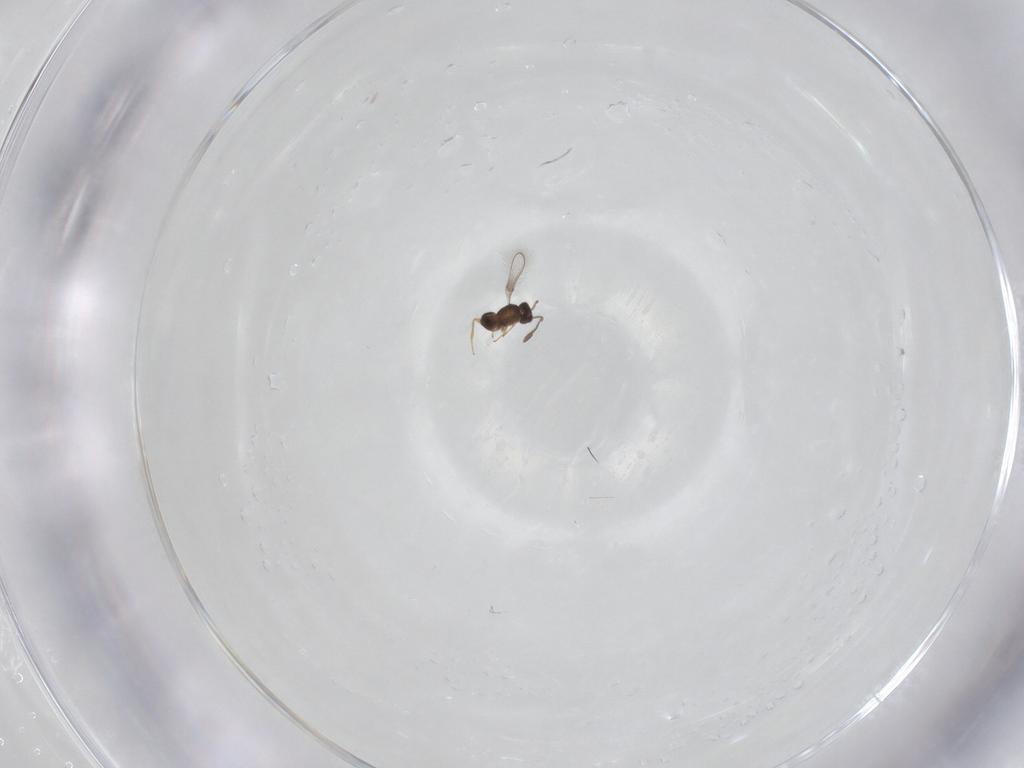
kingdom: Animalia
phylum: Arthropoda
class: Insecta
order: Hymenoptera
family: Mymaridae
